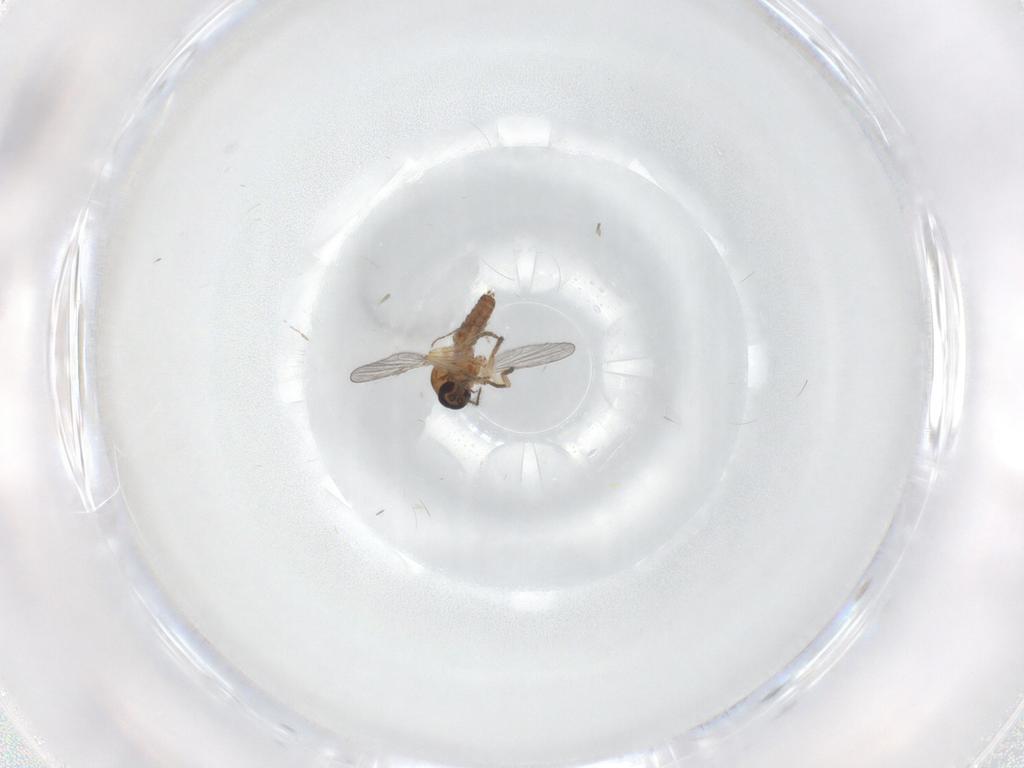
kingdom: Animalia
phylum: Arthropoda
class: Insecta
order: Diptera
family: Ceratopogonidae
